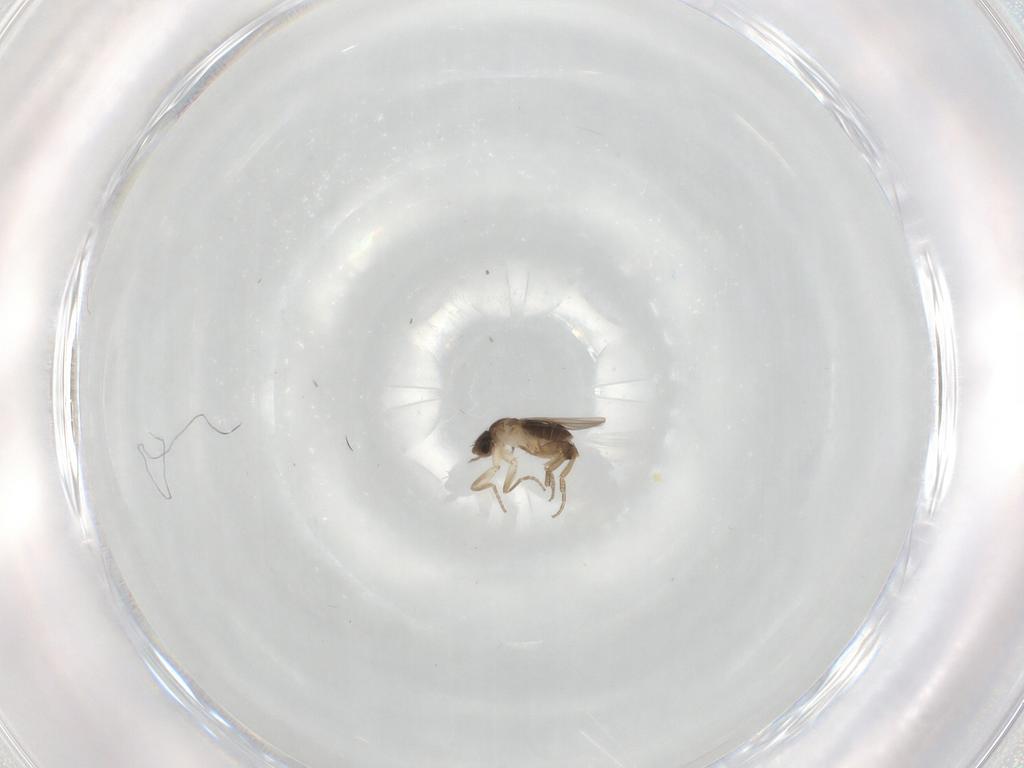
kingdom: Animalia
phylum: Arthropoda
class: Insecta
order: Diptera
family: Phoridae
